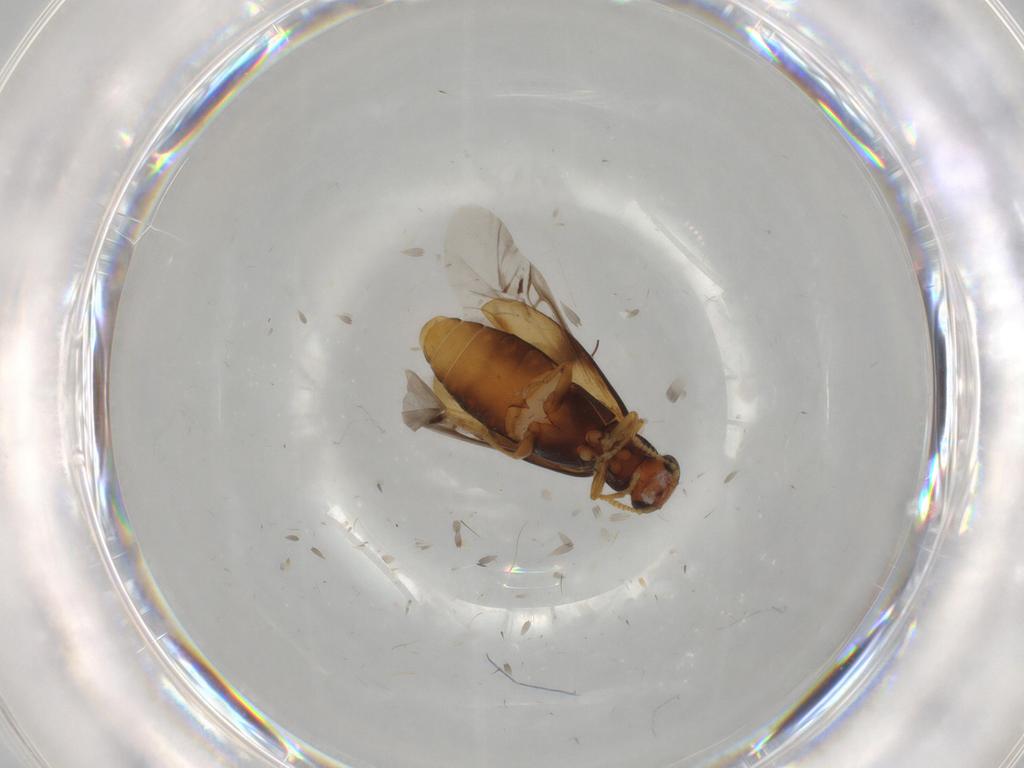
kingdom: Animalia
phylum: Arthropoda
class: Insecta
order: Coleoptera
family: Mycteridae
